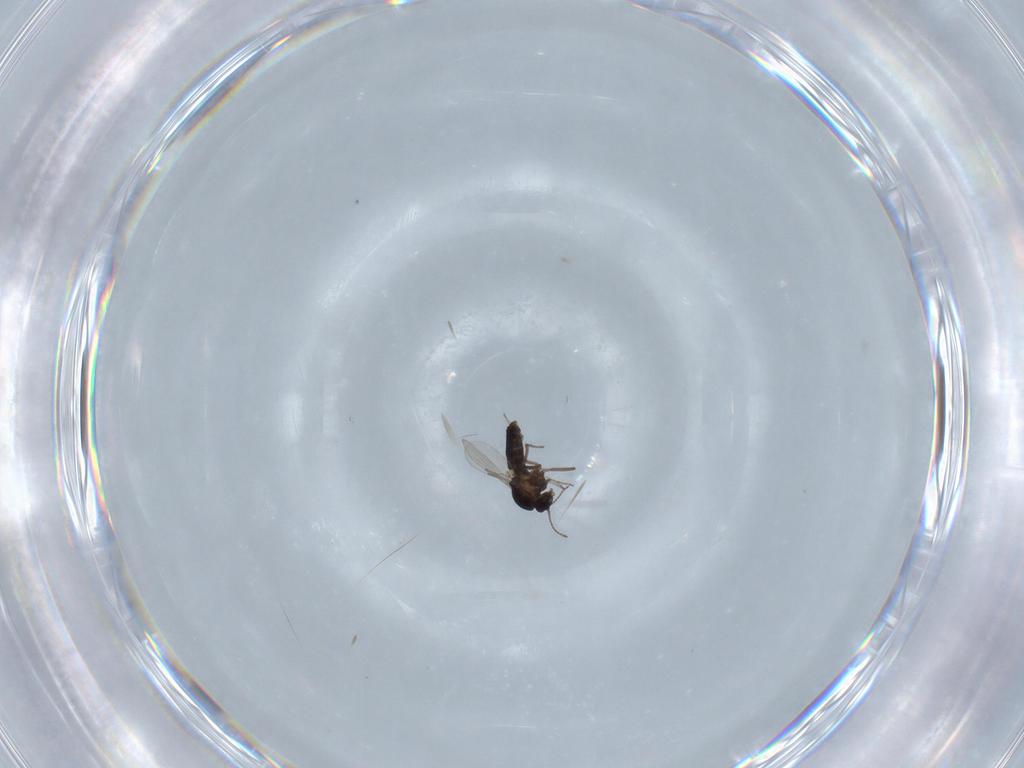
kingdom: Animalia
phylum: Arthropoda
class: Insecta
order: Diptera
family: Ceratopogonidae
